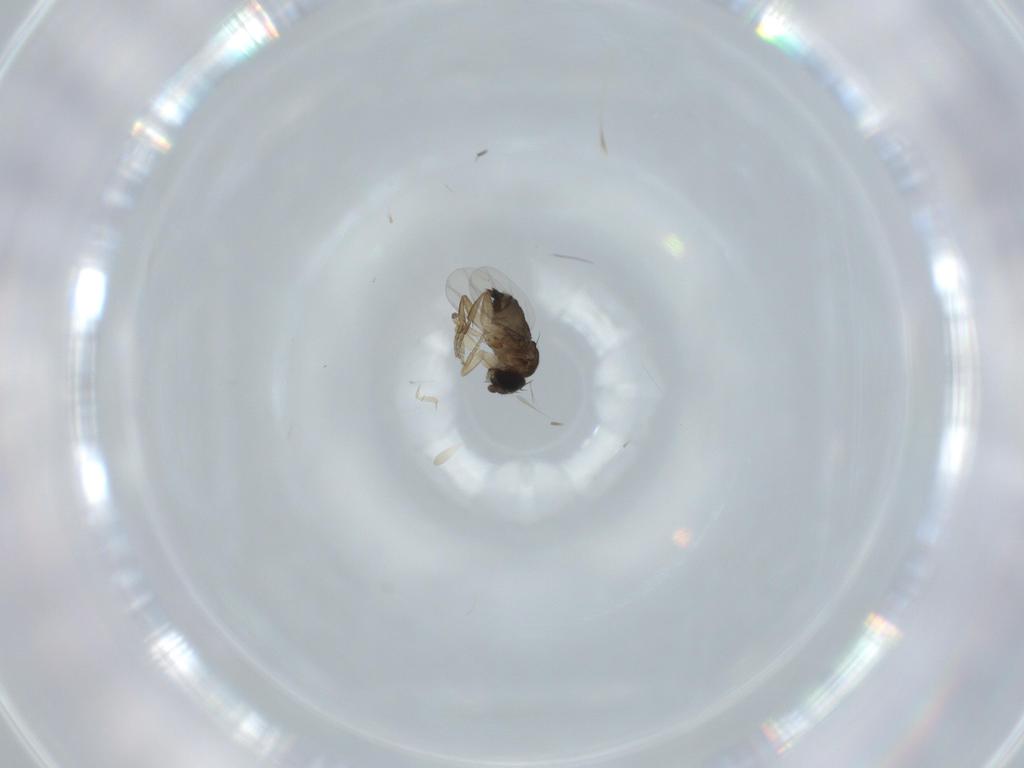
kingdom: Animalia
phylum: Arthropoda
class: Insecta
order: Diptera
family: Phoridae
